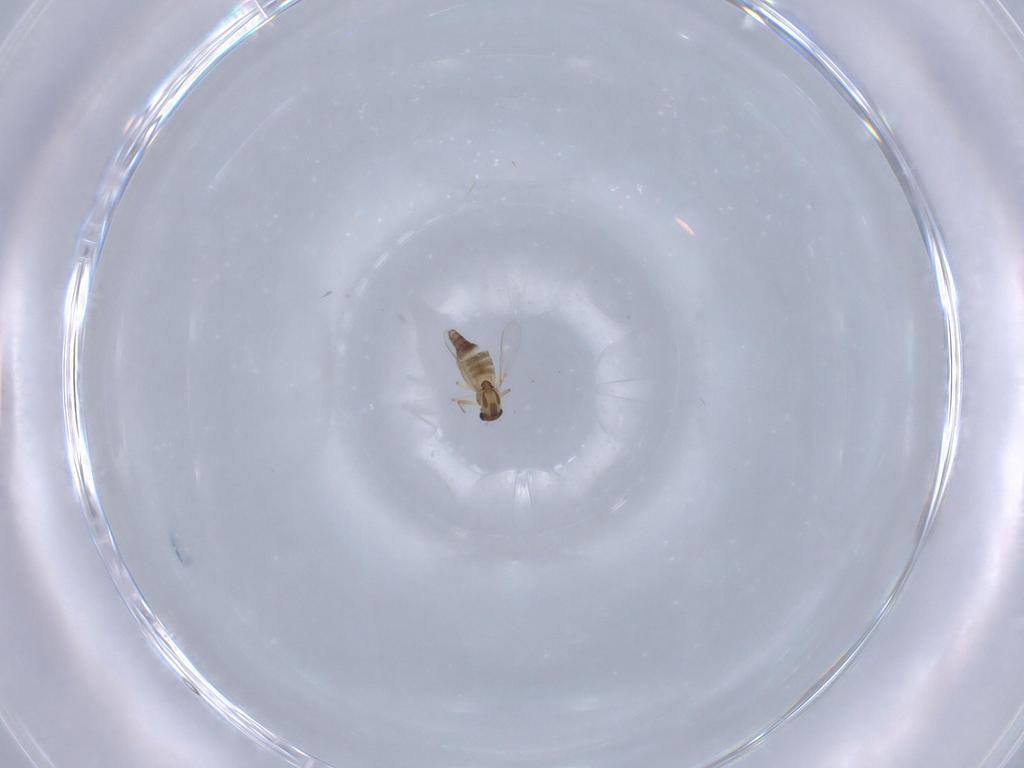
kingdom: Animalia
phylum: Arthropoda
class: Insecta
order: Diptera
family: Chironomidae
